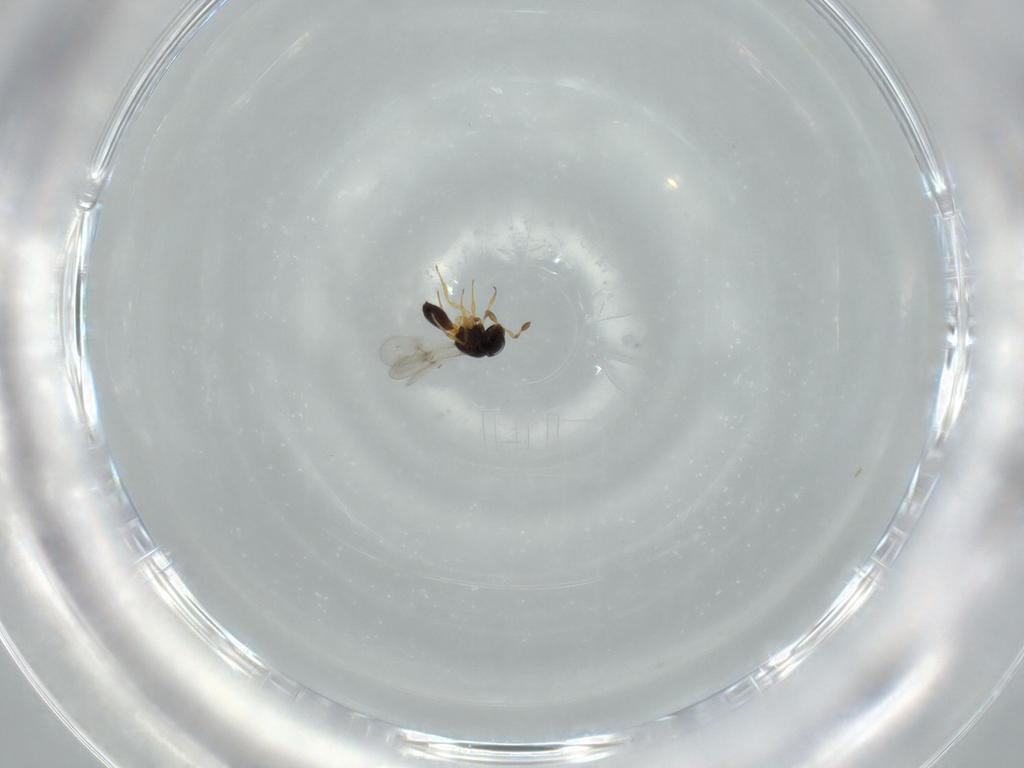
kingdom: Animalia
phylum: Arthropoda
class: Insecta
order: Hymenoptera
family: Scelionidae
